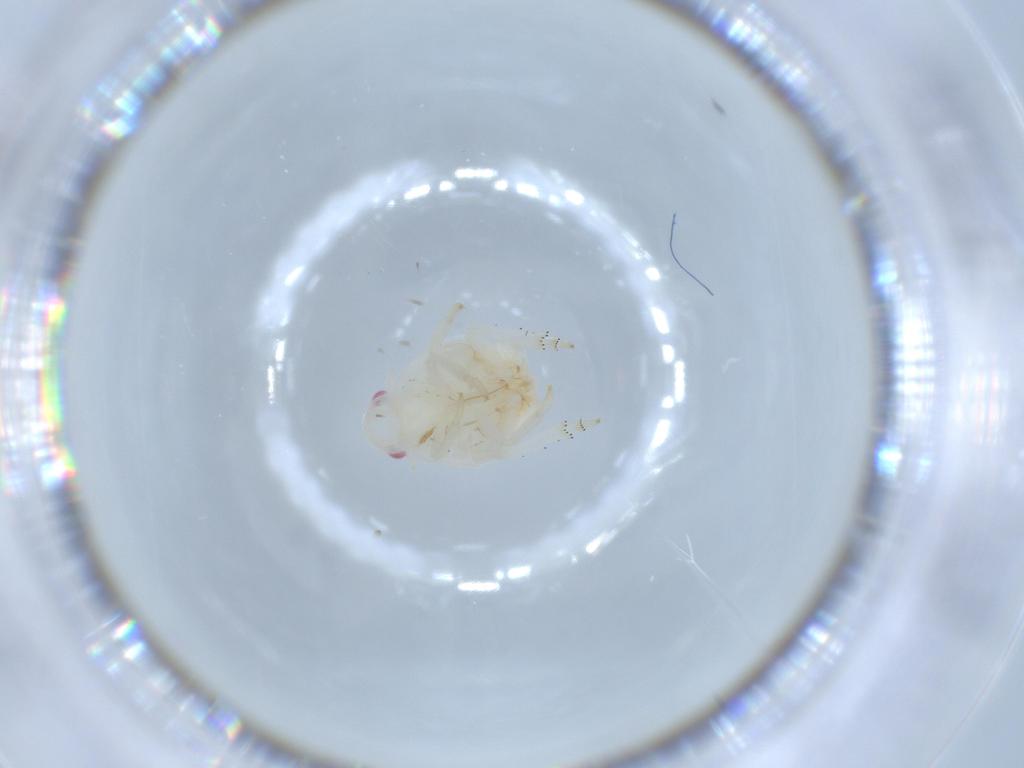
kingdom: Animalia
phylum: Arthropoda
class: Insecta
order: Hemiptera
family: Flatidae
